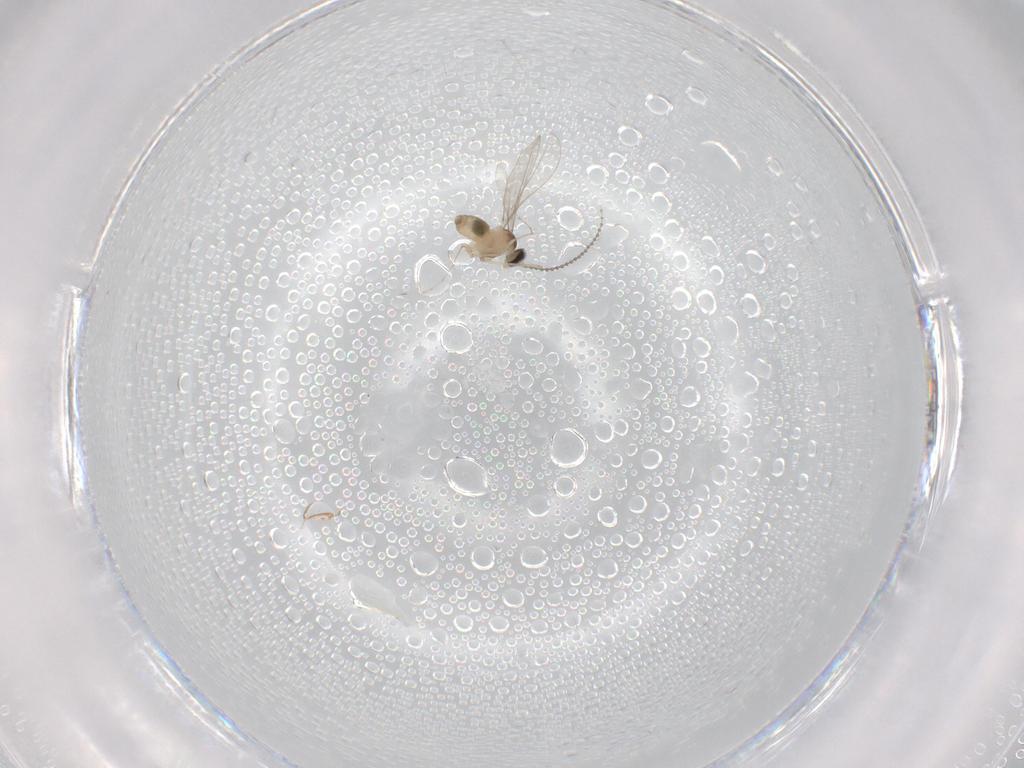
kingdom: Animalia
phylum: Arthropoda
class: Insecta
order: Diptera
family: Cecidomyiidae
